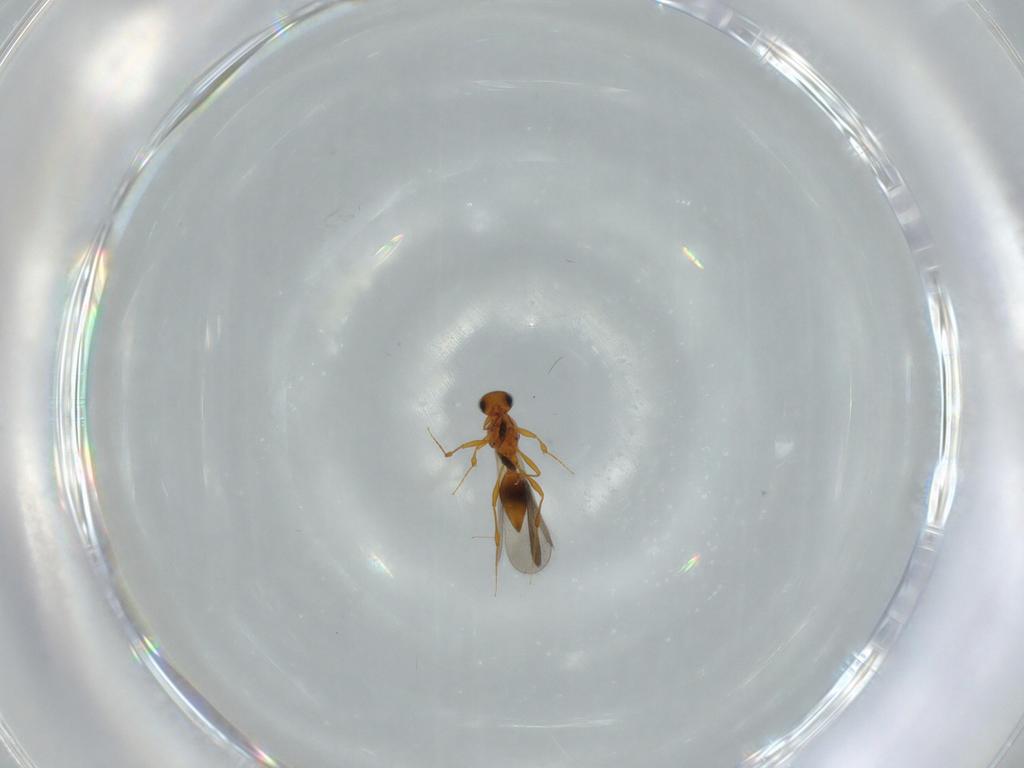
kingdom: Animalia
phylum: Arthropoda
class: Insecta
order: Hymenoptera
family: Platygastridae
